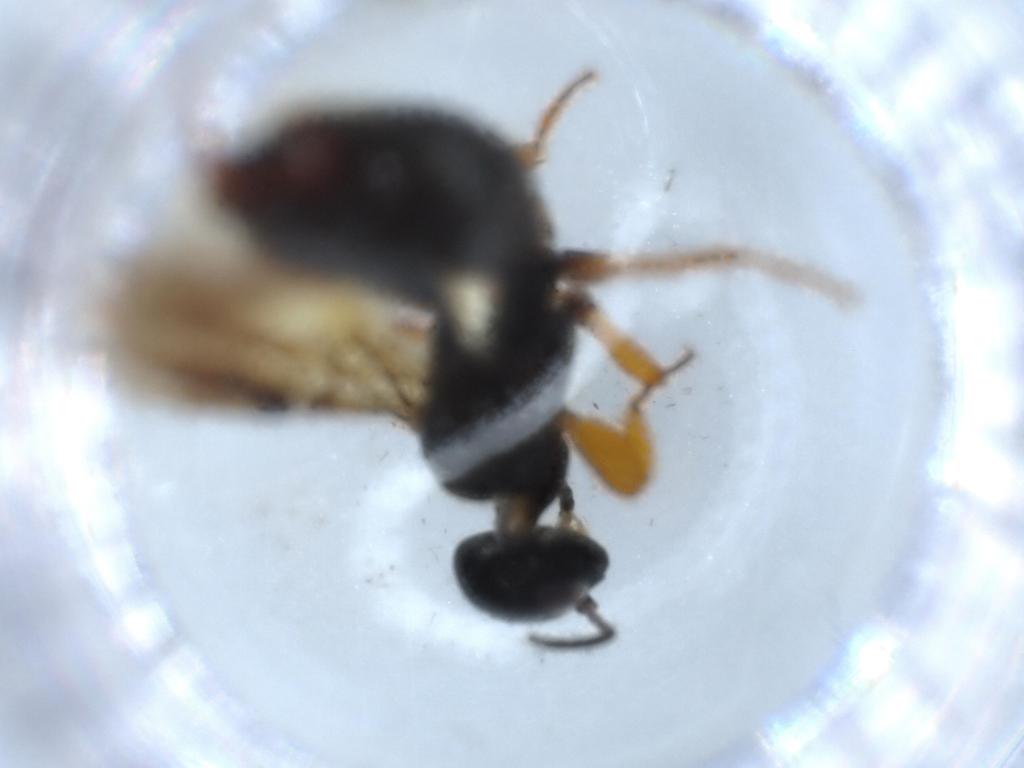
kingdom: Animalia
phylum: Arthropoda
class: Insecta
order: Hymenoptera
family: Scolebythidae
